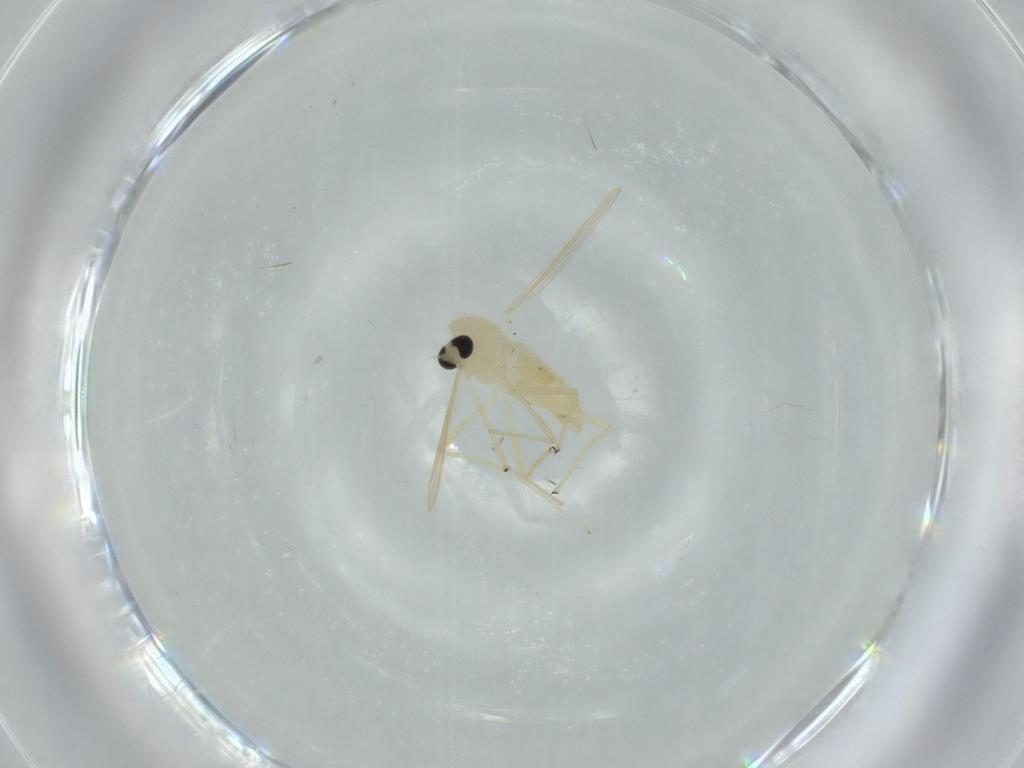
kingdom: Animalia
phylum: Arthropoda
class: Insecta
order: Diptera
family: Chironomidae
